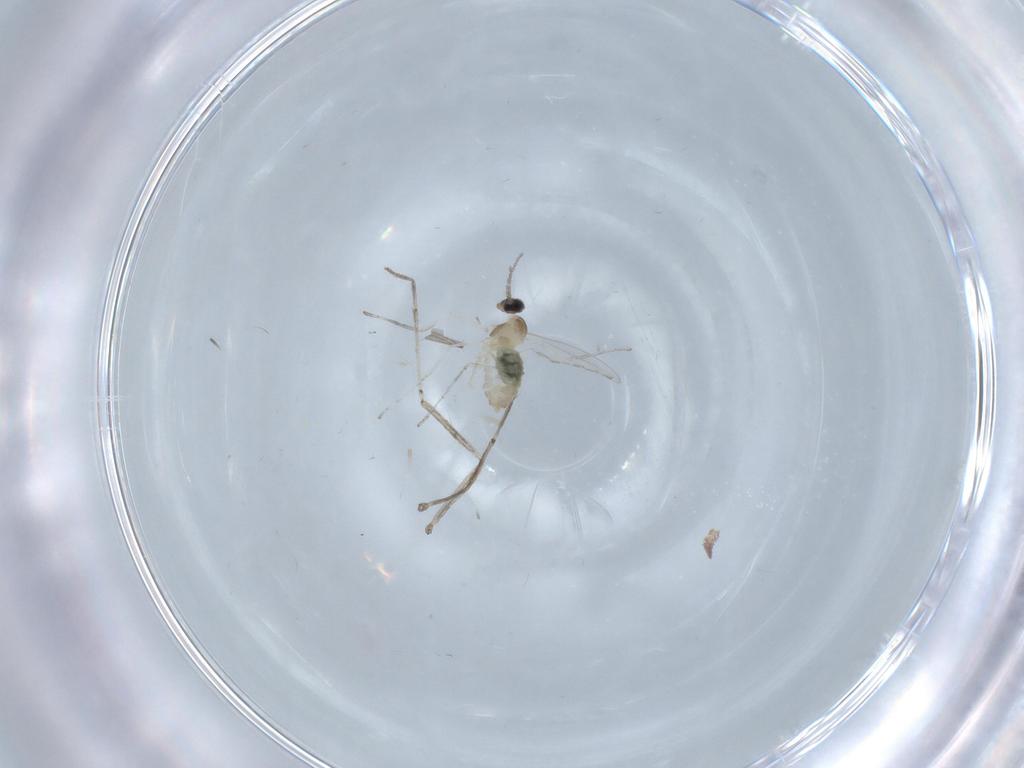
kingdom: Animalia
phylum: Arthropoda
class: Insecta
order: Diptera
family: Cecidomyiidae
